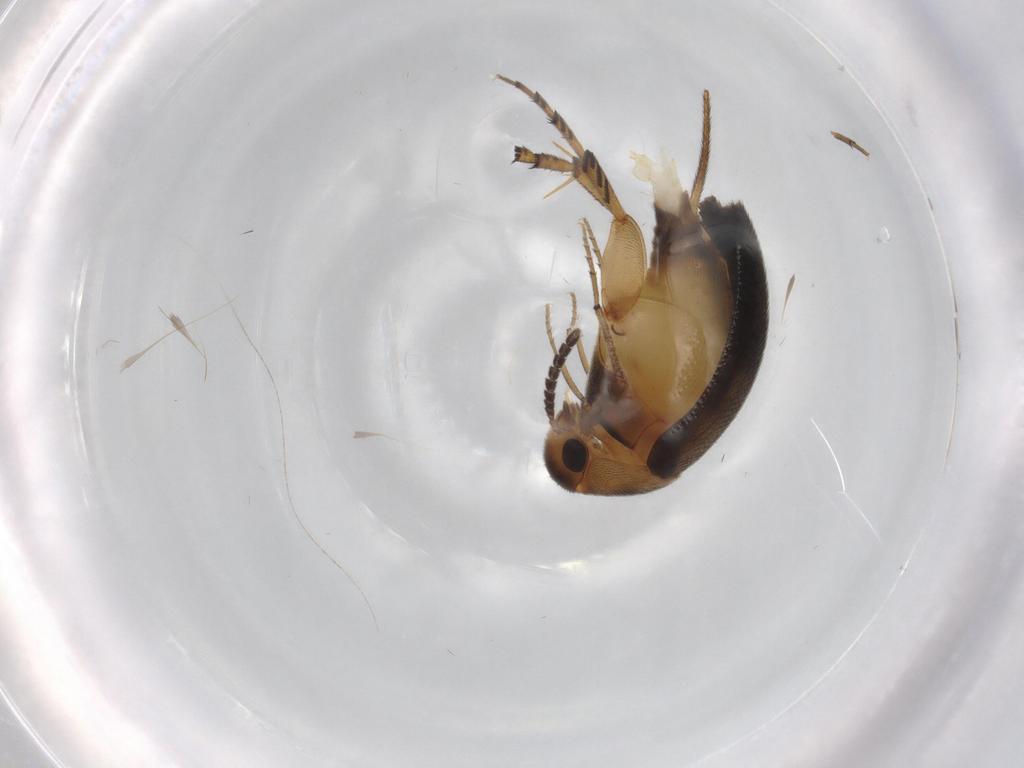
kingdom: Animalia
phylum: Arthropoda
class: Insecta
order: Coleoptera
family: Mordellidae
